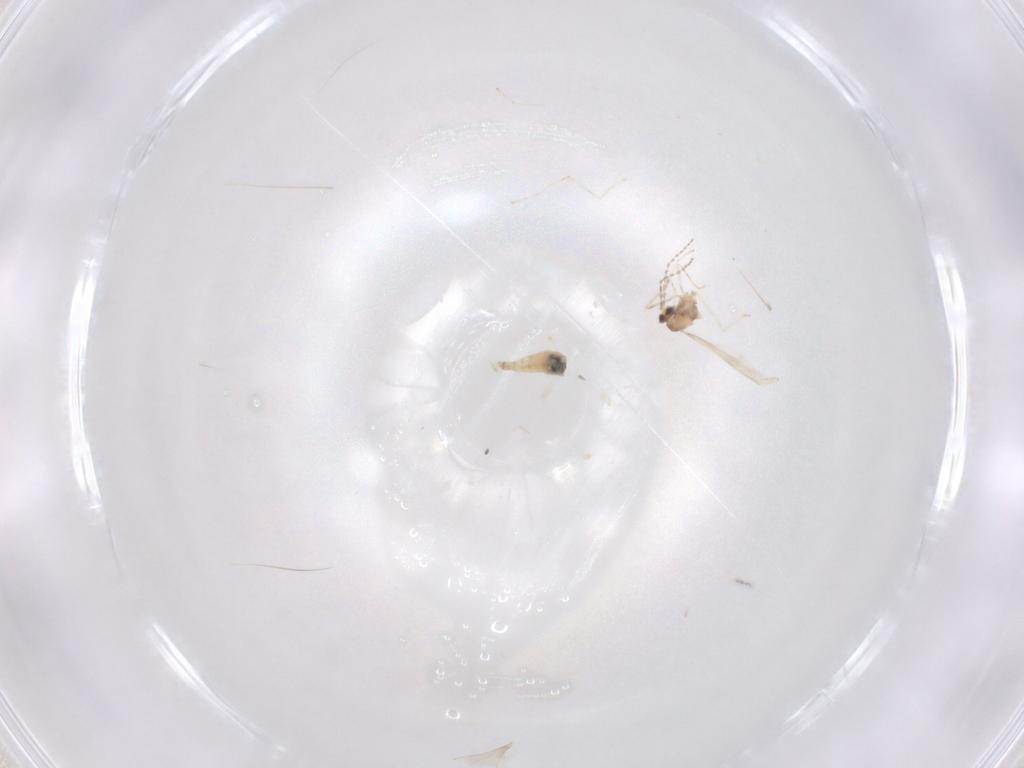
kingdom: Animalia
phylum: Arthropoda
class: Insecta
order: Diptera
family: Cecidomyiidae
